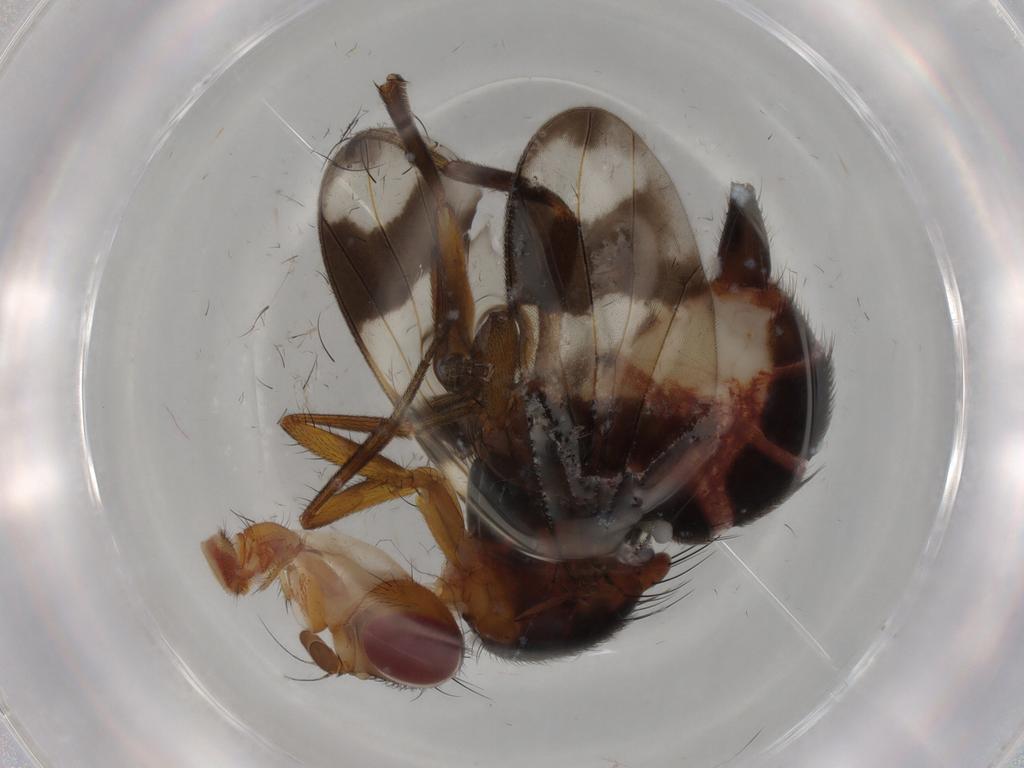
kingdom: Animalia
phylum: Arthropoda
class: Insecta
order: Diptera
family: Richardiidae
